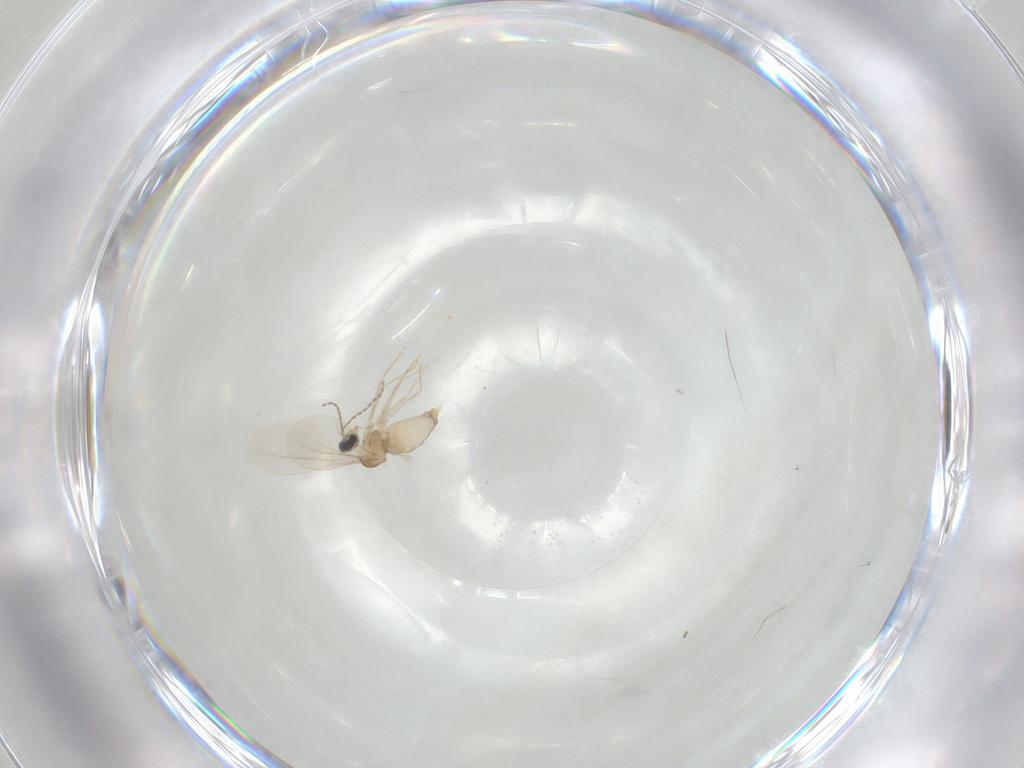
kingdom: Animalia
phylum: Arthropoda
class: Insecta
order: Diptera
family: Cecidomyiidae
